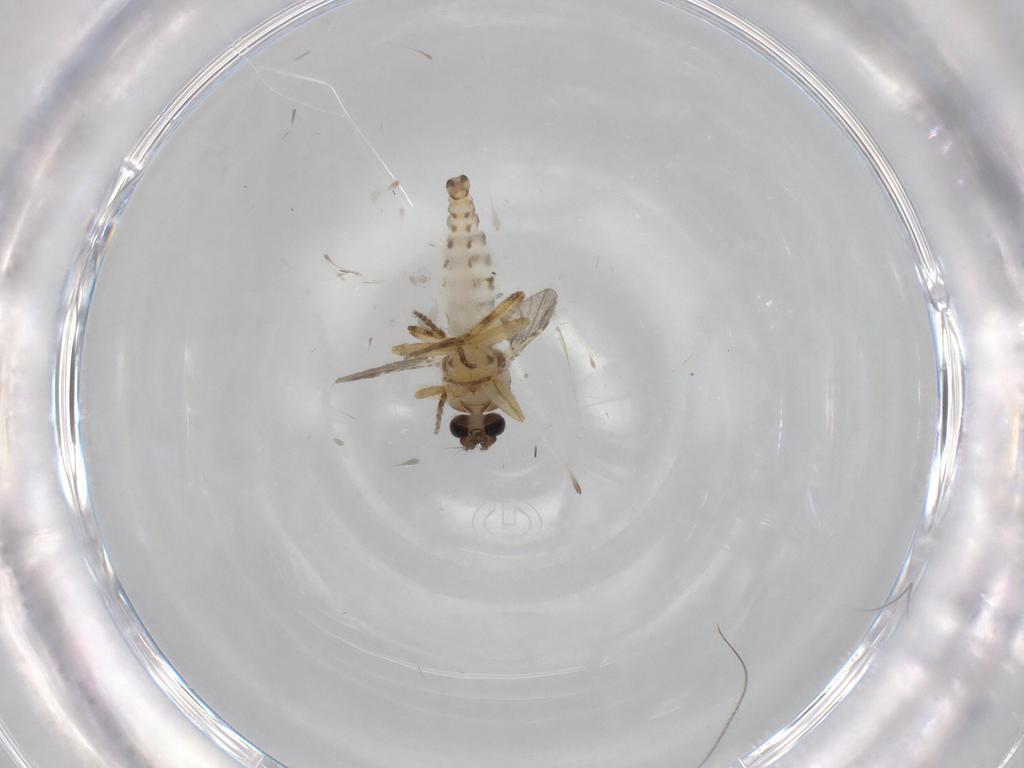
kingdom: Animalia
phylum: Arthropoda
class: Insecta
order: Diptera
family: Ceratopogonidae
